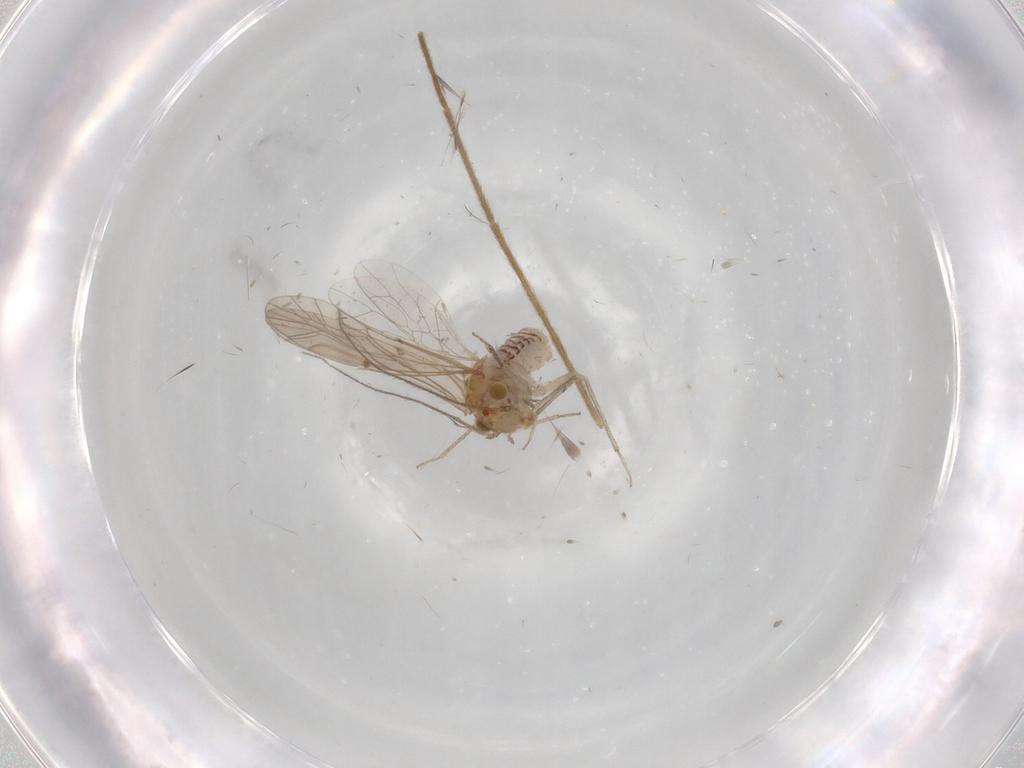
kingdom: Animalia
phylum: Arthropoda
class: Insecta
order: Psocodea
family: Lachesillidae
